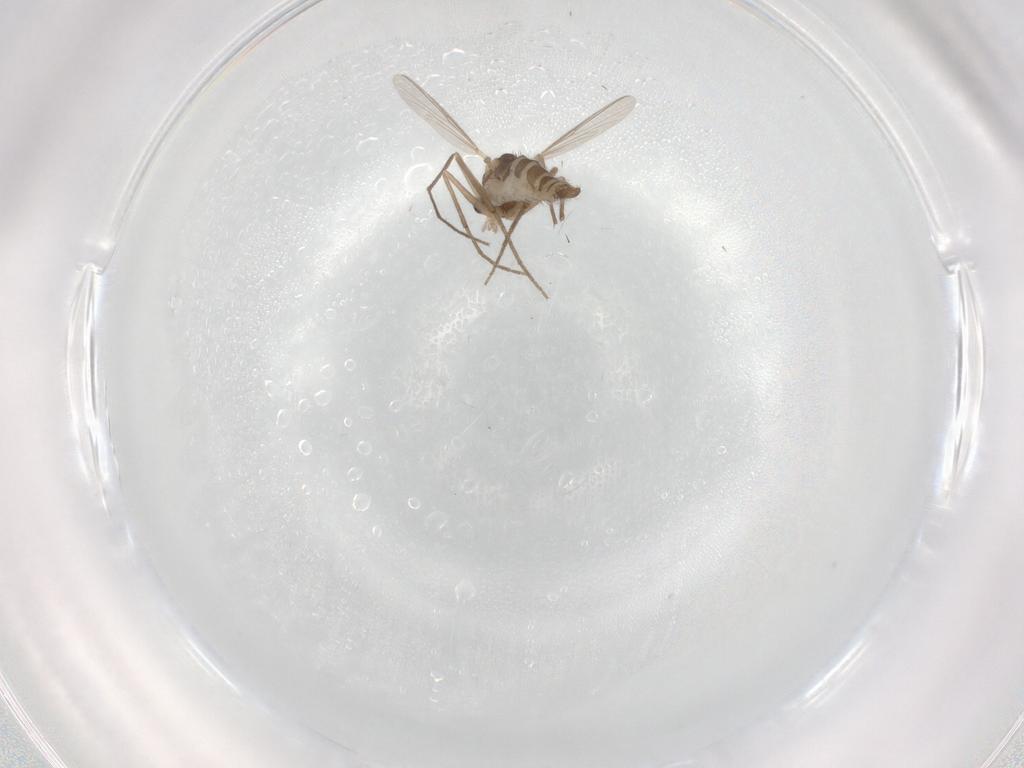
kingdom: Animalia
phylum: Arthropoda
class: Insecta
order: Diptera
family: Chironomidae
